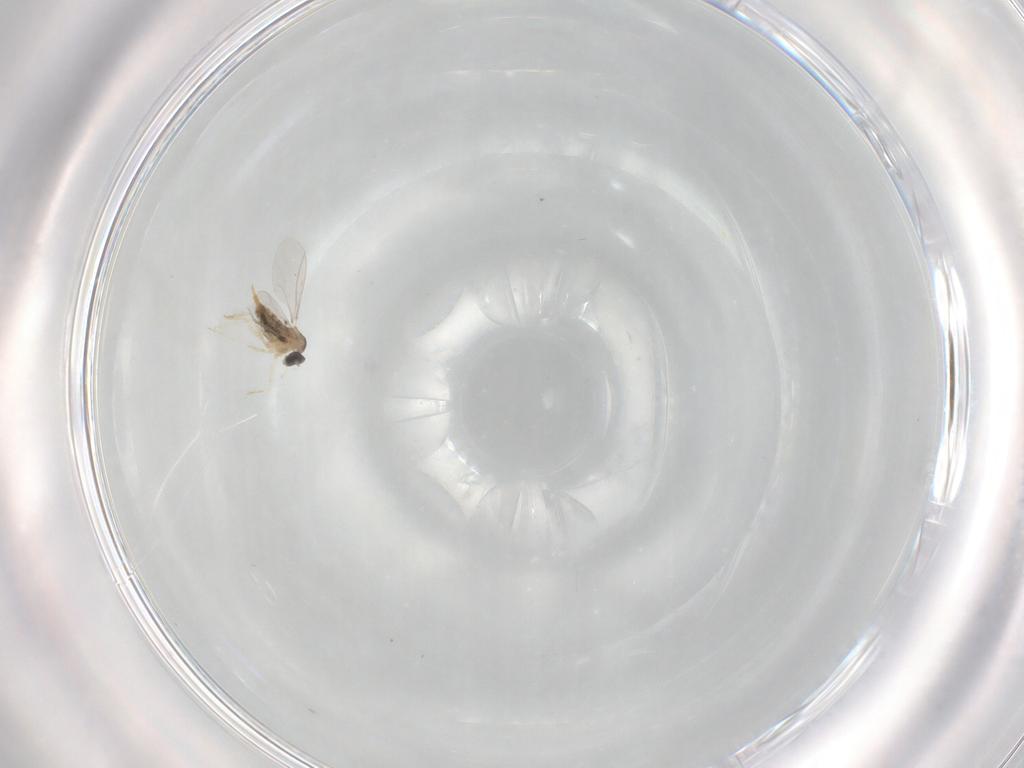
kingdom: Animalia
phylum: Arthropoda
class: Insecta
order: Diptera
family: Cecidomyiidae
